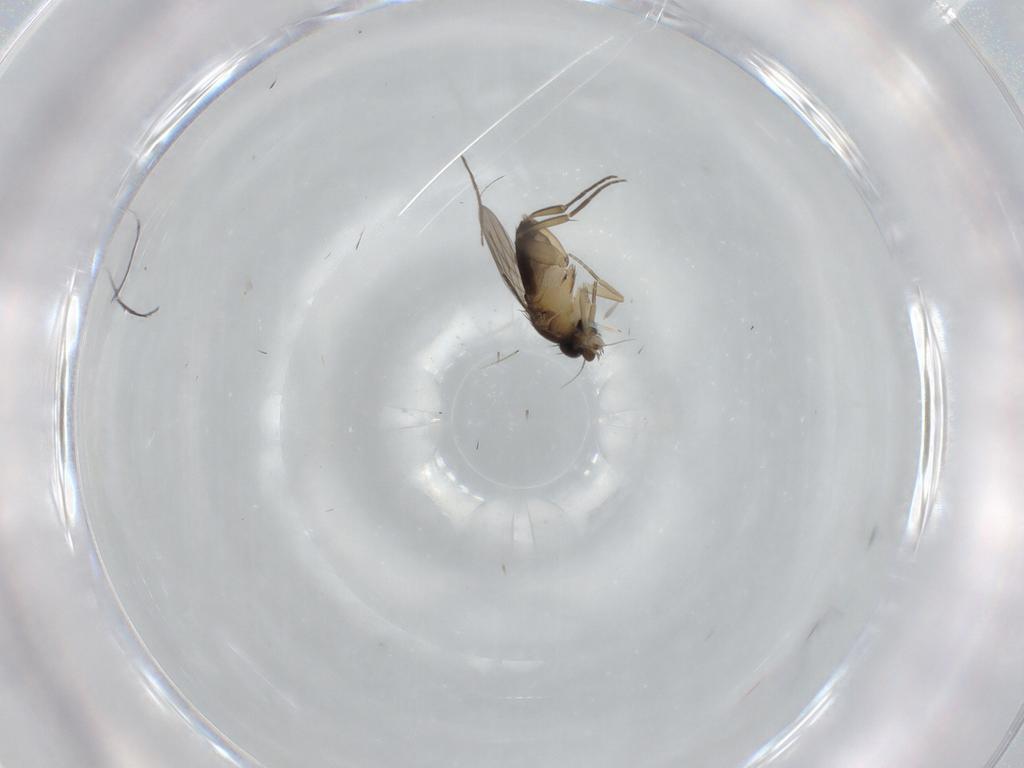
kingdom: Animalia
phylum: Arthropoda
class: Insecta
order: Diptera
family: Phoridae
